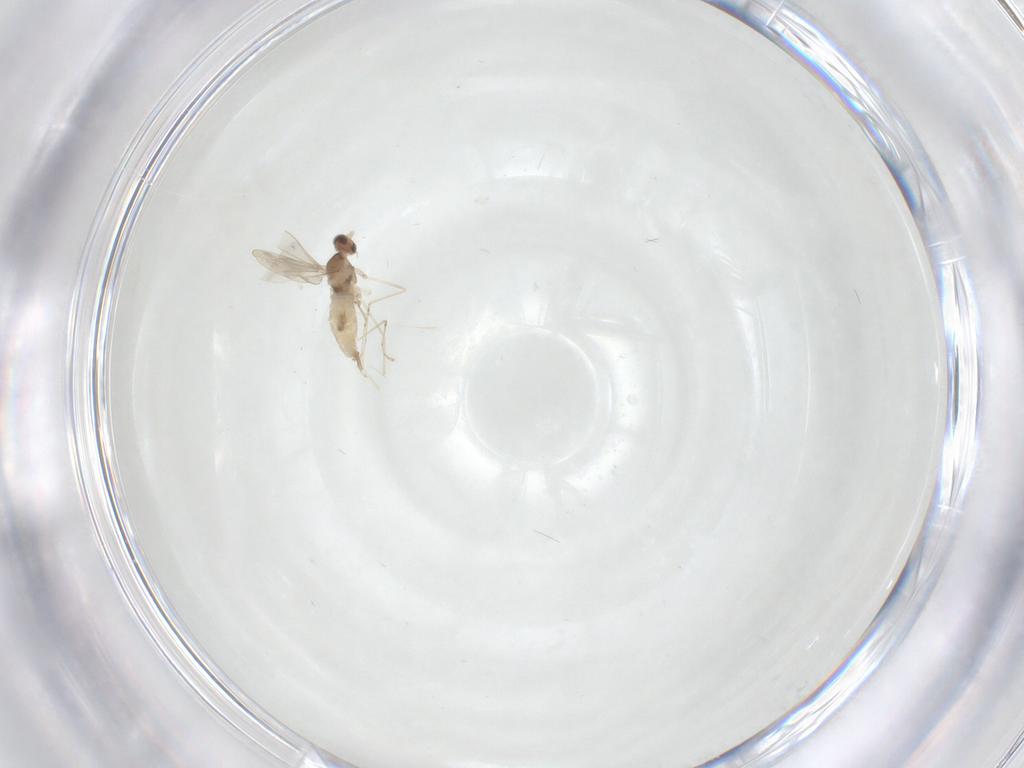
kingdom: Animalia
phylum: Arthropoda
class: Insecta
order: Diptera
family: Cecidomyiidae
